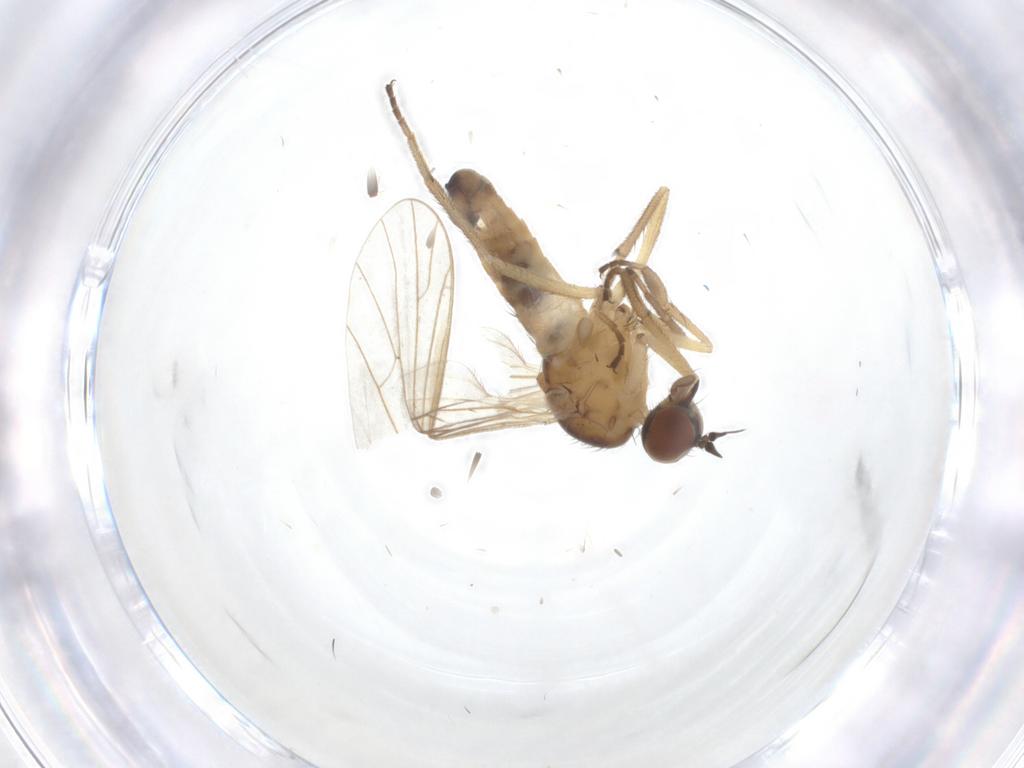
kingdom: Animalia
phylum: Arthropoda
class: Insecta
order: Diptera
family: Empididae
